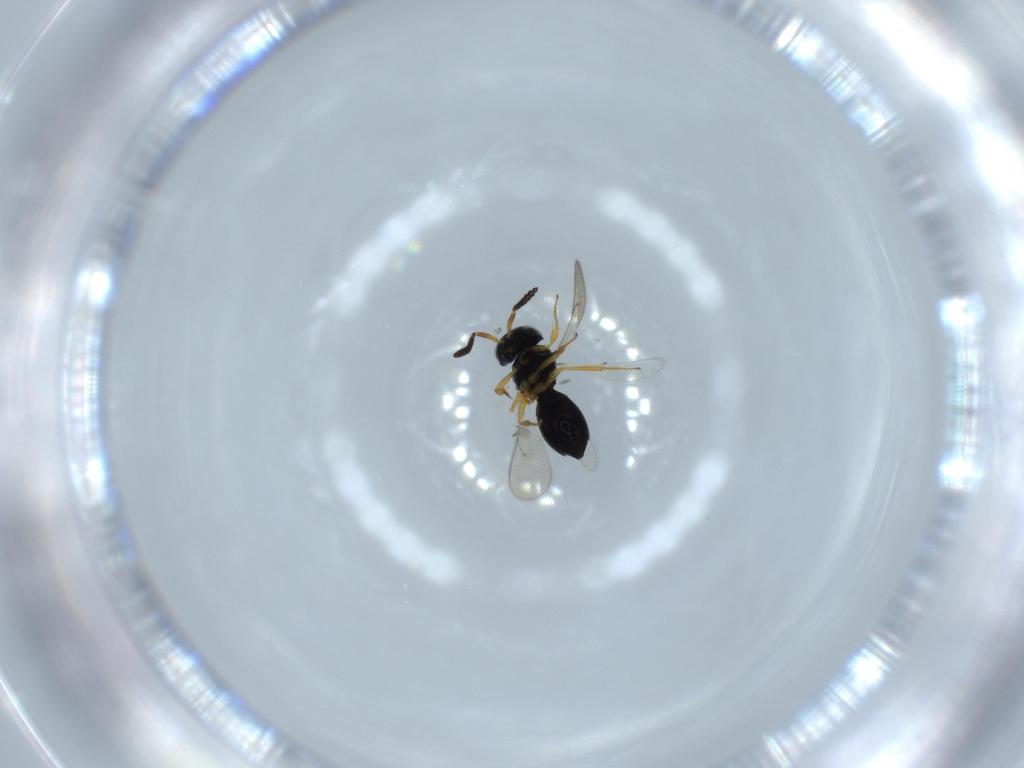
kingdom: Animalia
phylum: Arthropoda
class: Insecta
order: Hymenoptera
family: Scelionidae
